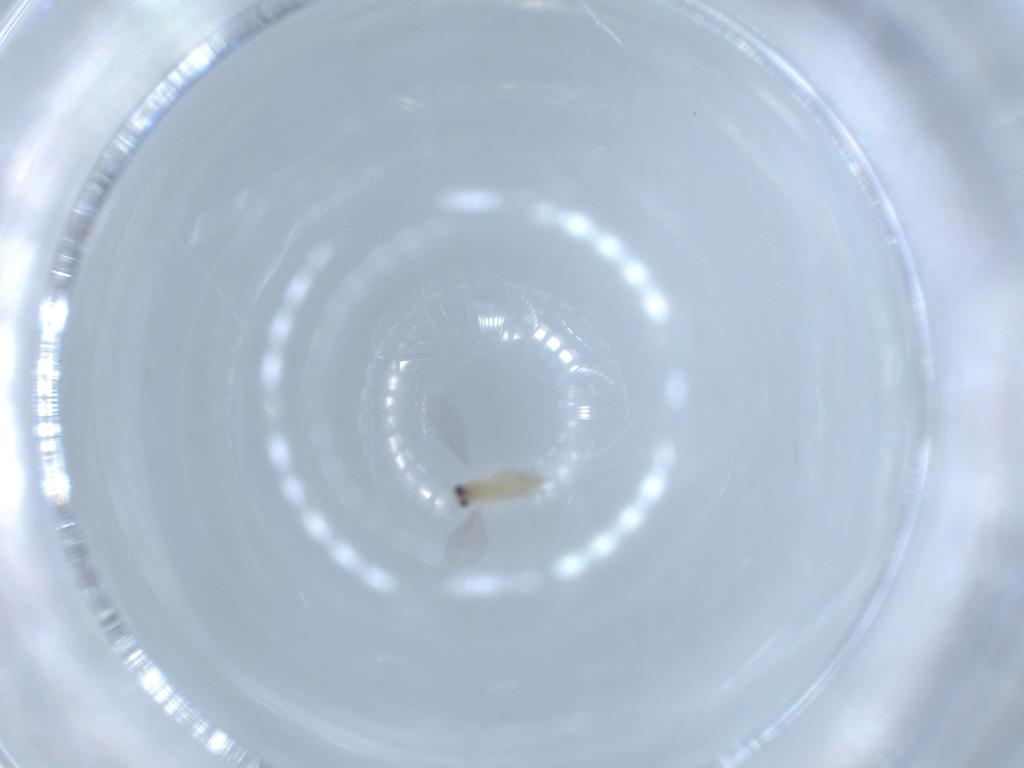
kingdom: Animalia
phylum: Arthropoda
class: Insecta
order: Diptera
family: Cecidomyiidae
